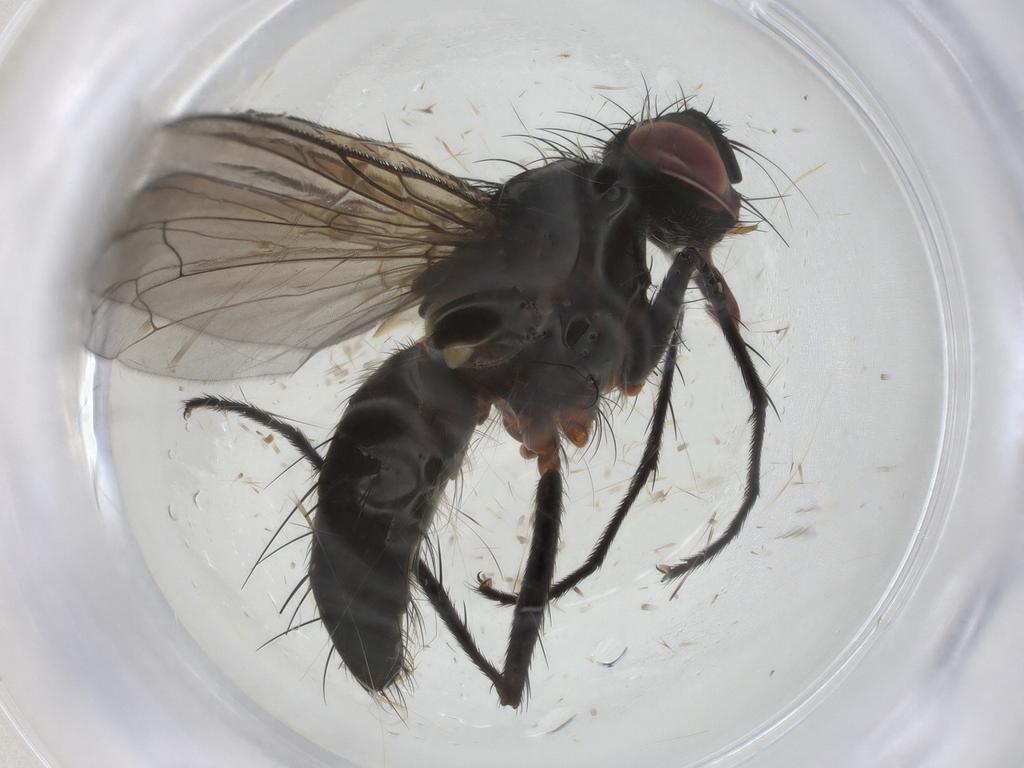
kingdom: Animalia
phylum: Arthropoda
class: Insecta
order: Diptera
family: Tachinidae
